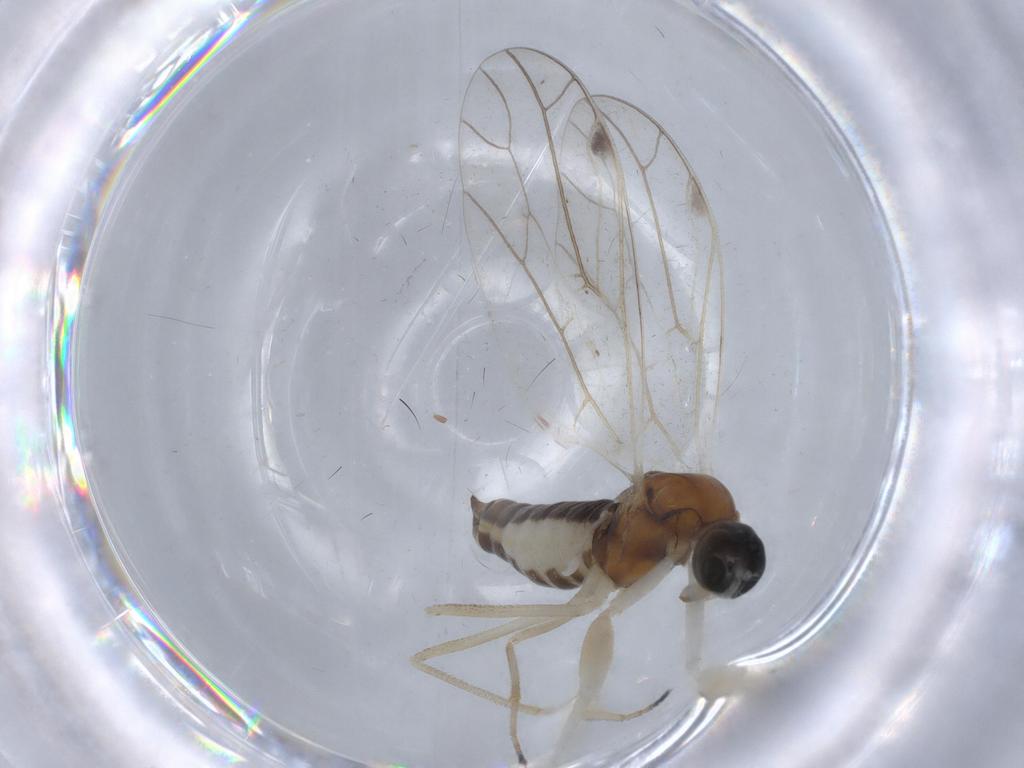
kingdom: Animalia
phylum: Arthropoda
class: Insecta
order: Diptera
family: Empididae
